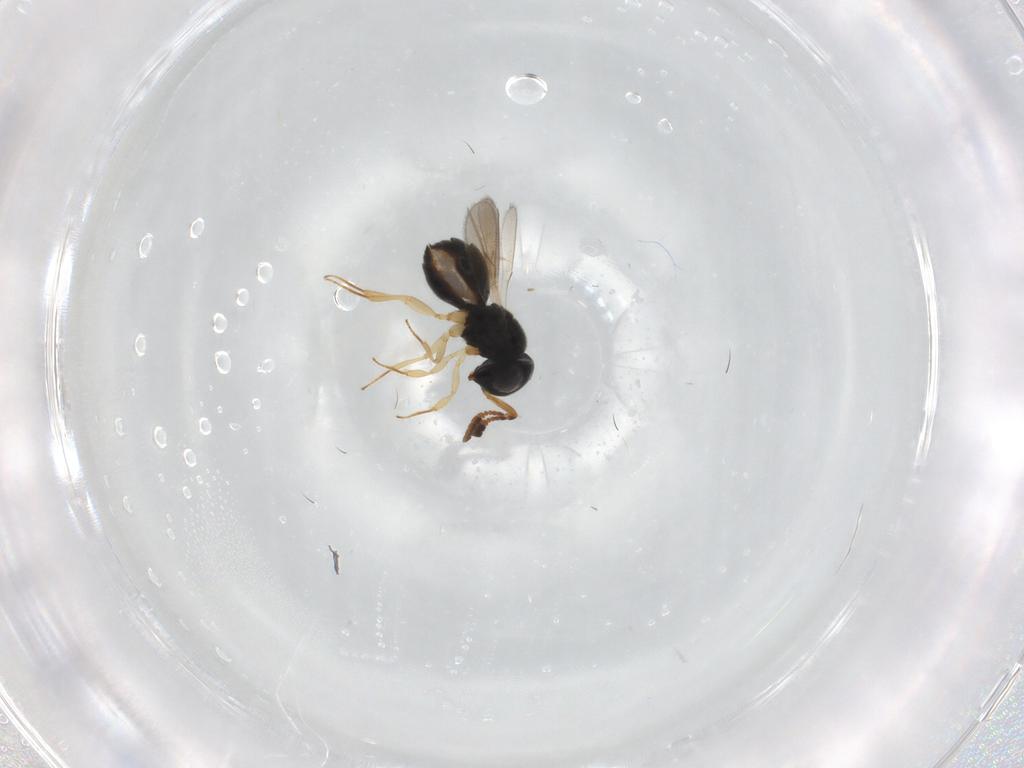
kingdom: Animalia
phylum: Arthropoda
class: Insecta
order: Hymenoptera
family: Scelionidae
